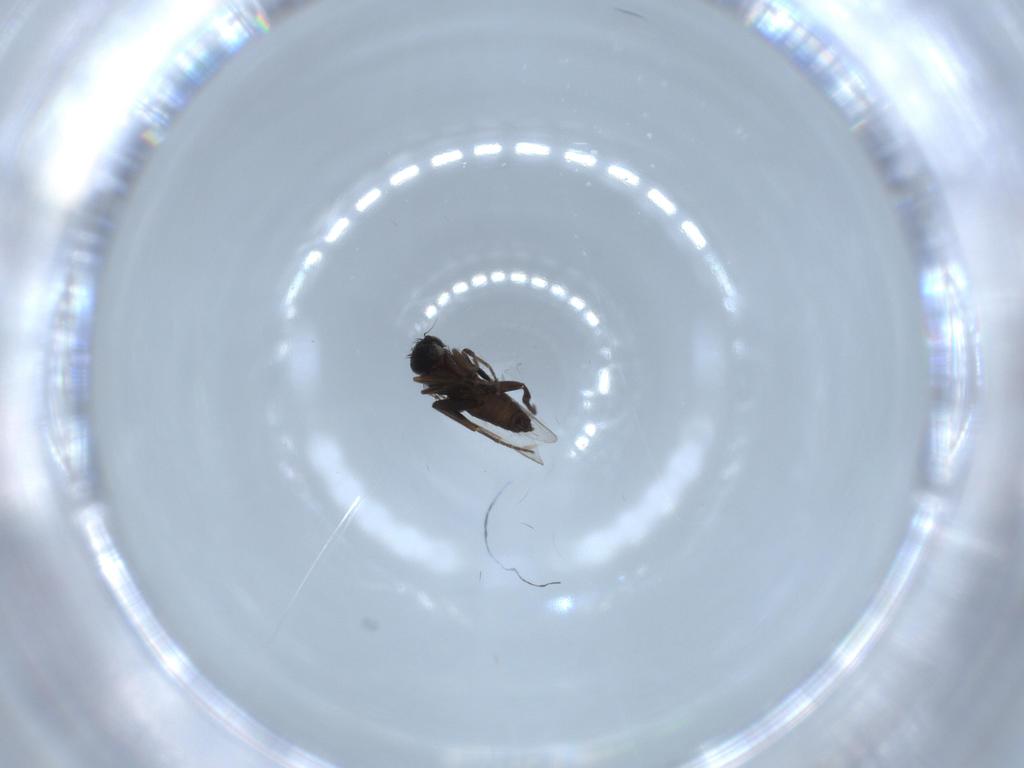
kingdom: Animalia
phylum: Arthropoda
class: Insecta
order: Diptera
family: Phoridae
